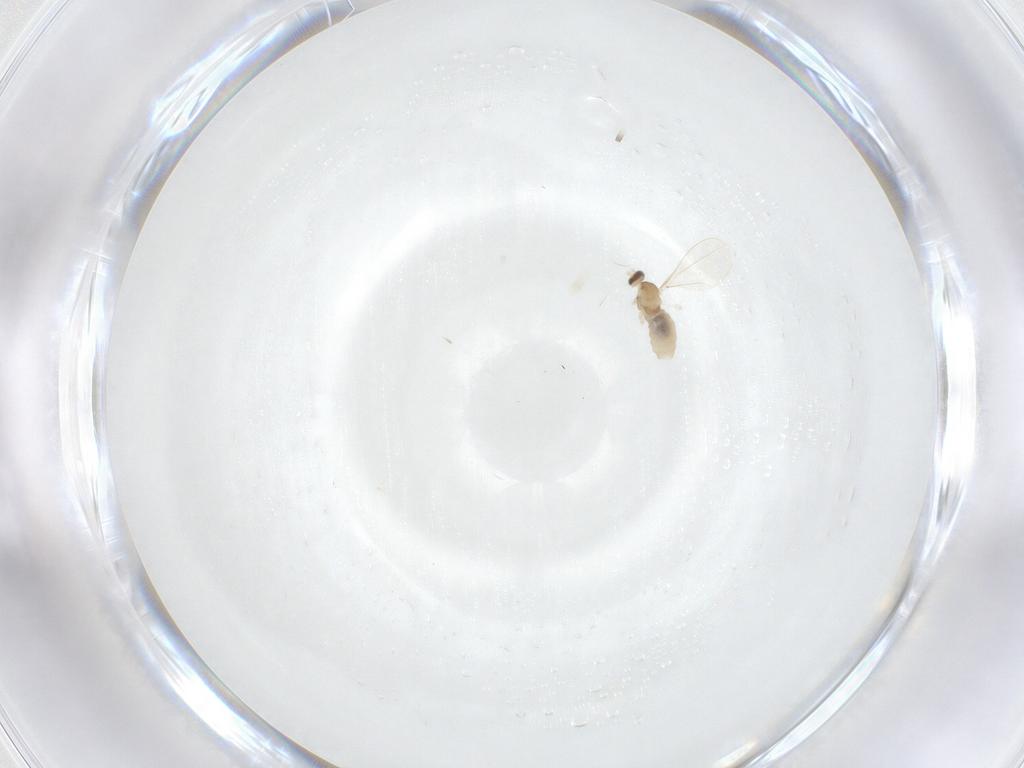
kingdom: Animalia
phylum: Arthropoda
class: Insecta
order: Diptera
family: Cecidomyiidae
